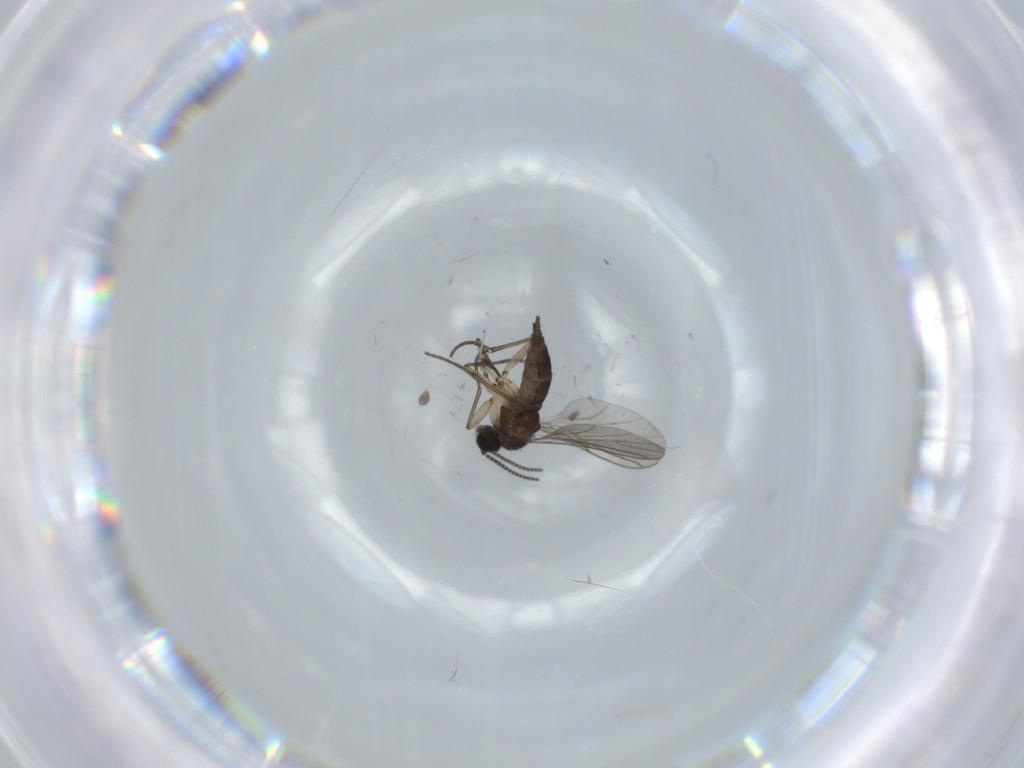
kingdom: Animalia
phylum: Arthropoda
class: Insecta
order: Diptera
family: Sciaridae
